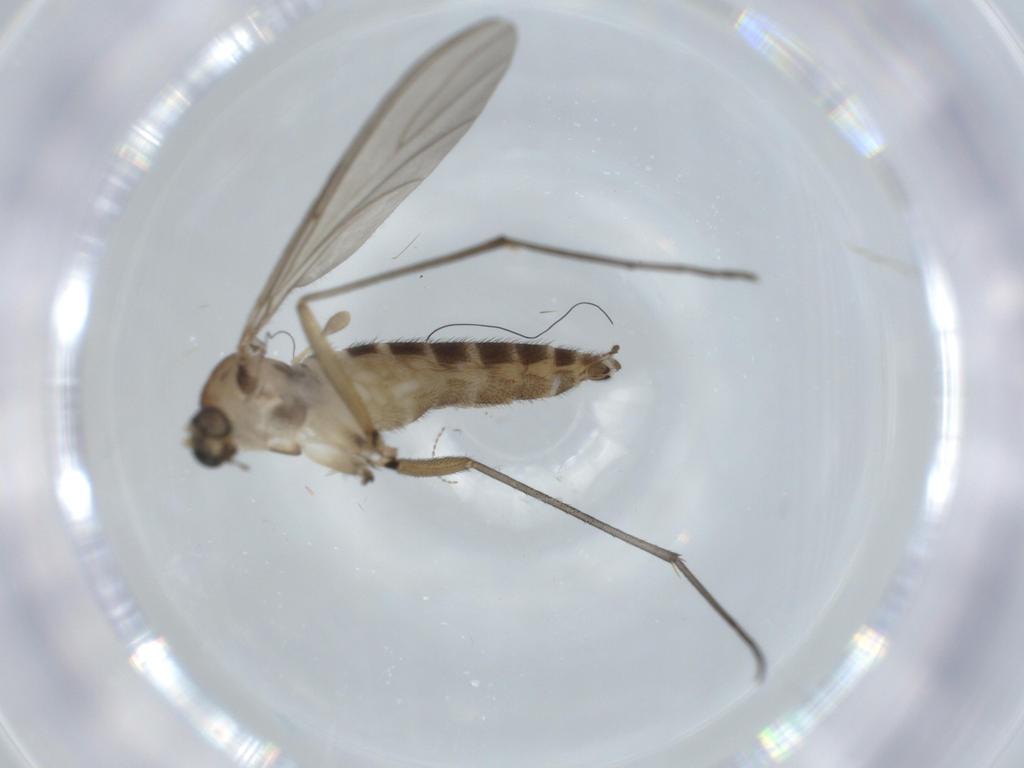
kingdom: Animalia
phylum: Arthropoda
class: Insecta
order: Diptera
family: Sciaridae
